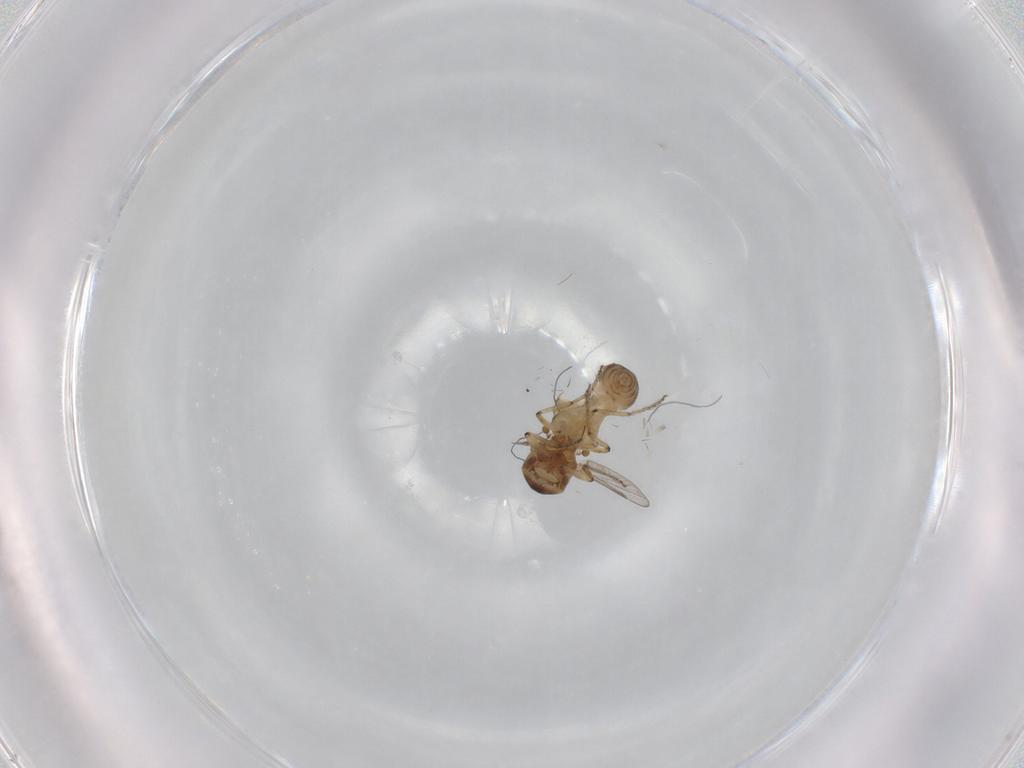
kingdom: Animalia
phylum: Arthropoda
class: Insecta
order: Diptera
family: Ceratopogonidae
